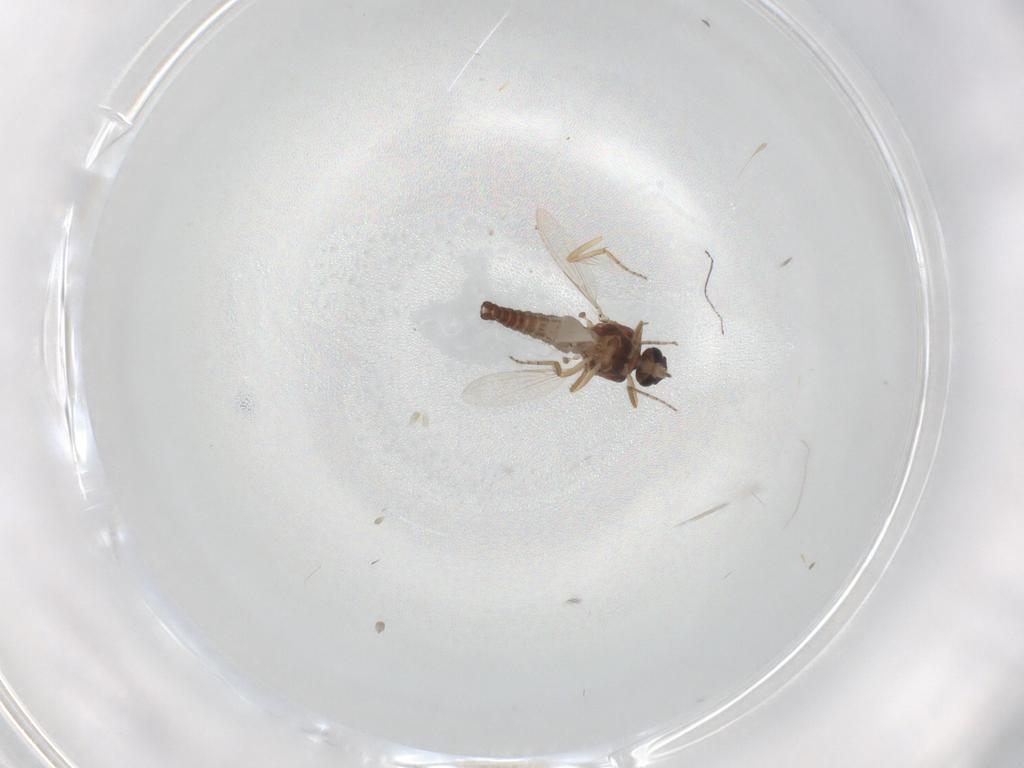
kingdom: Animalia
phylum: Arthropoda
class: Insecta
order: Diptera
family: Ceratopogonidae
